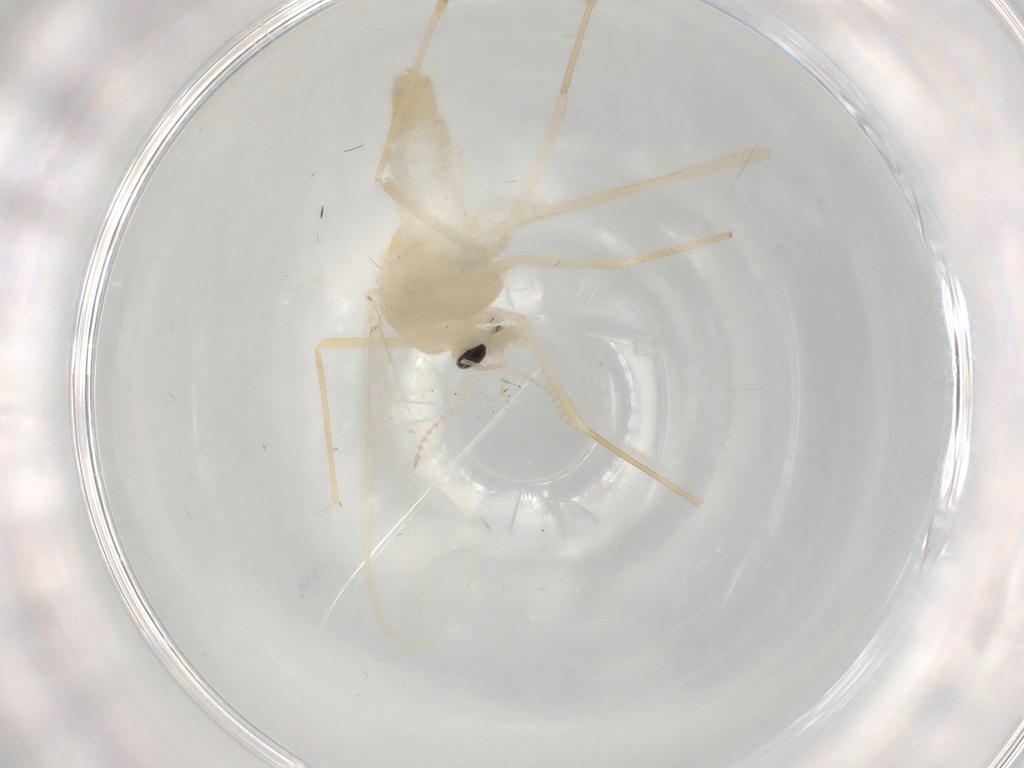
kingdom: Animalia
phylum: Arthropoda
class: Insecta
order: Diptera
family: Chironomidae
